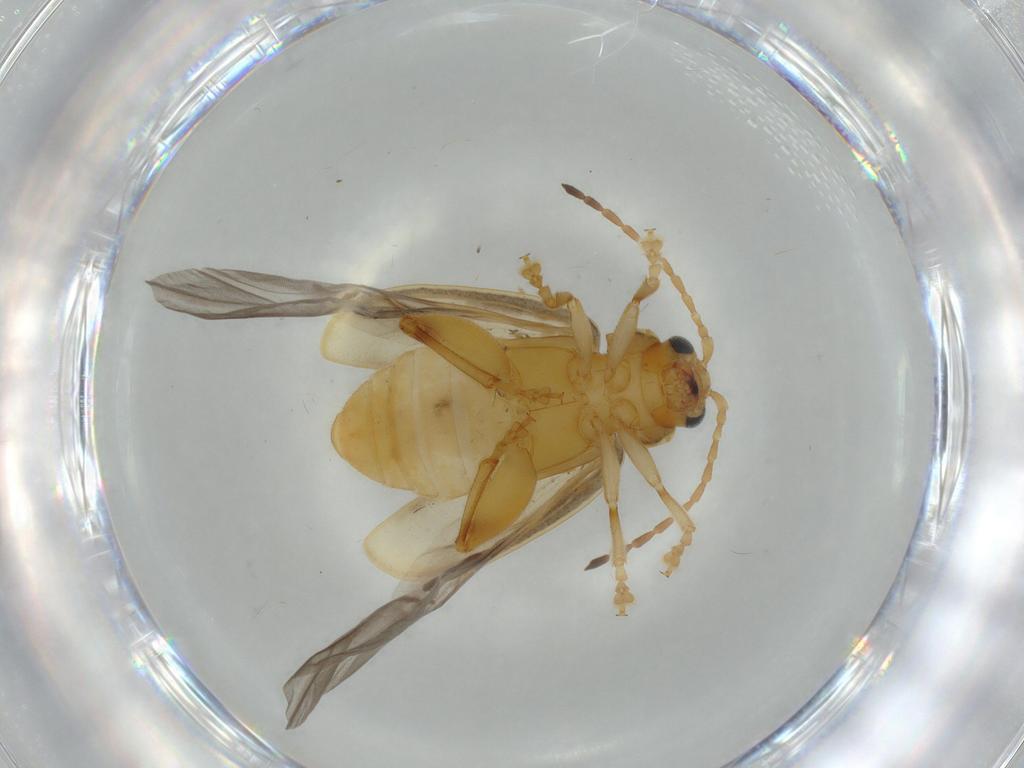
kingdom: Animalia
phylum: Arthropoda
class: Insecta
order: Coleoptera
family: Chrysomelidae
